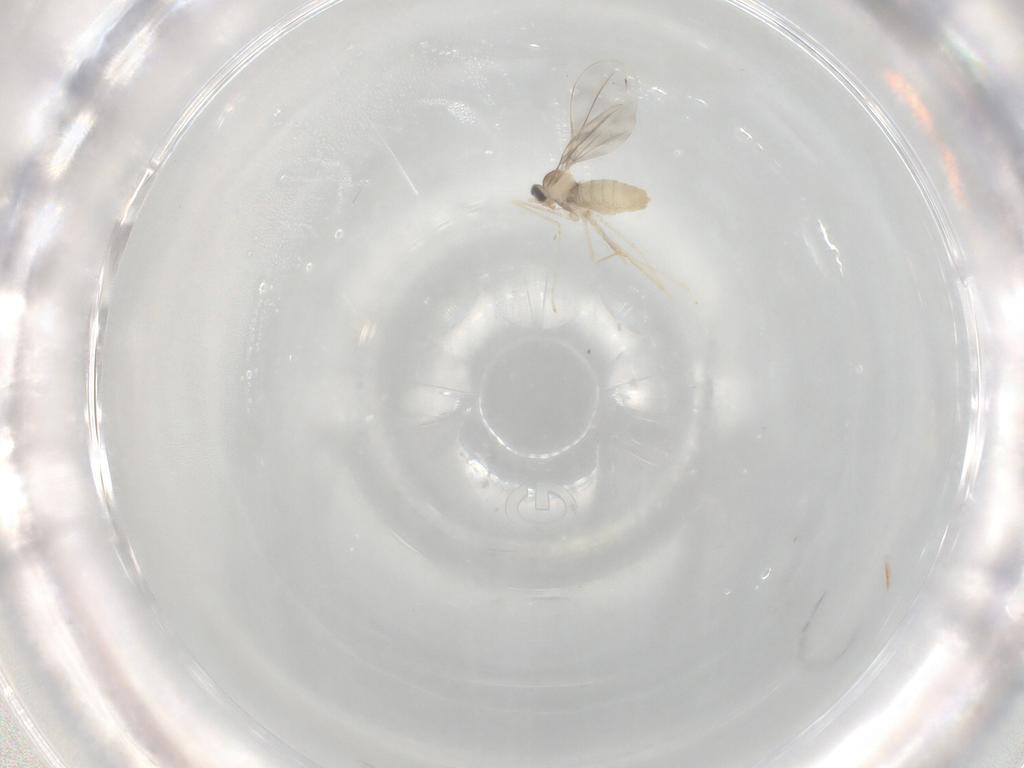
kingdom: Animalia
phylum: Arthropoda
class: Insecta
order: Diptera
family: Cecidomyiidae
